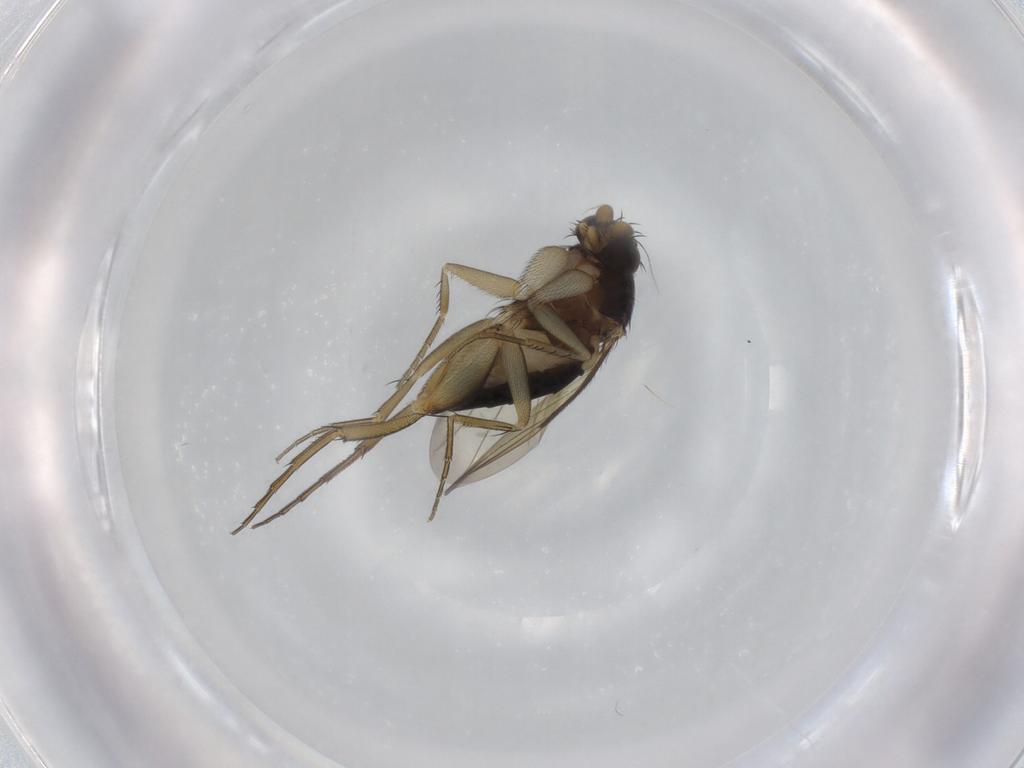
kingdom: Animalia
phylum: Arthropoda
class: Insecta
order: Diptera
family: Phoridae
